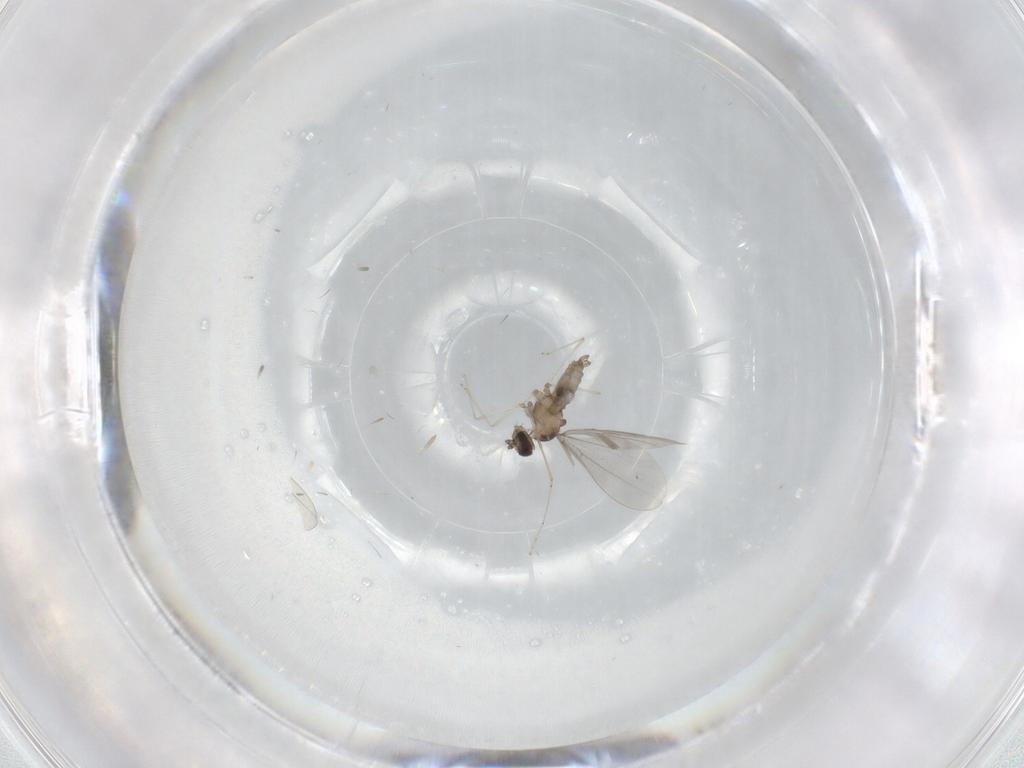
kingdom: Animalia
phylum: Arthropoda
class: Insecta
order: Diptera
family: Cecidomyiidae
